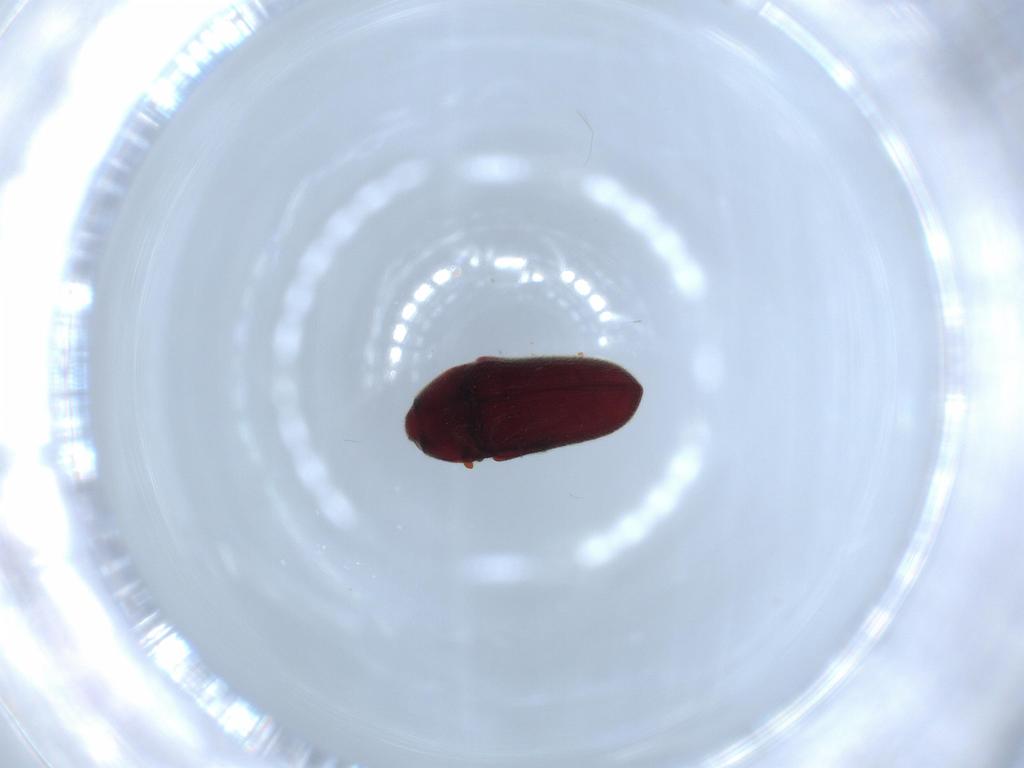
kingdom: Animalia
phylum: Arthropoda
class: Insecta
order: Coleoptera
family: Throscidae
